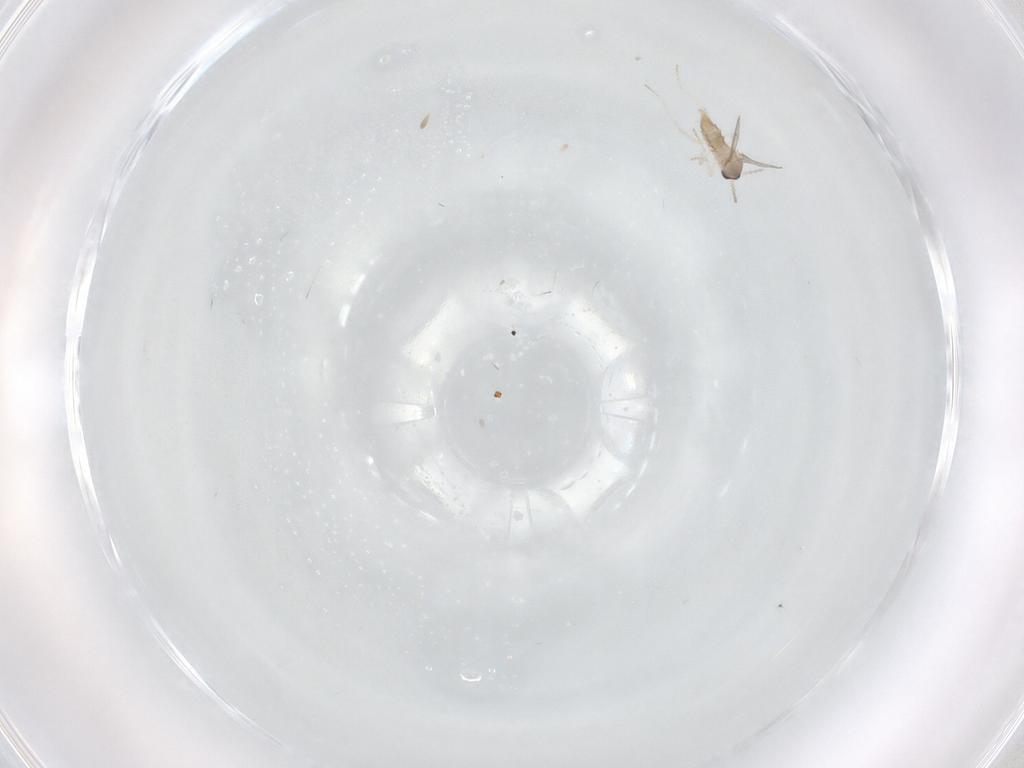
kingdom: Animalia
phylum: Arthropoda
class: Insecta
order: Diptera
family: Cecidomyiidae
